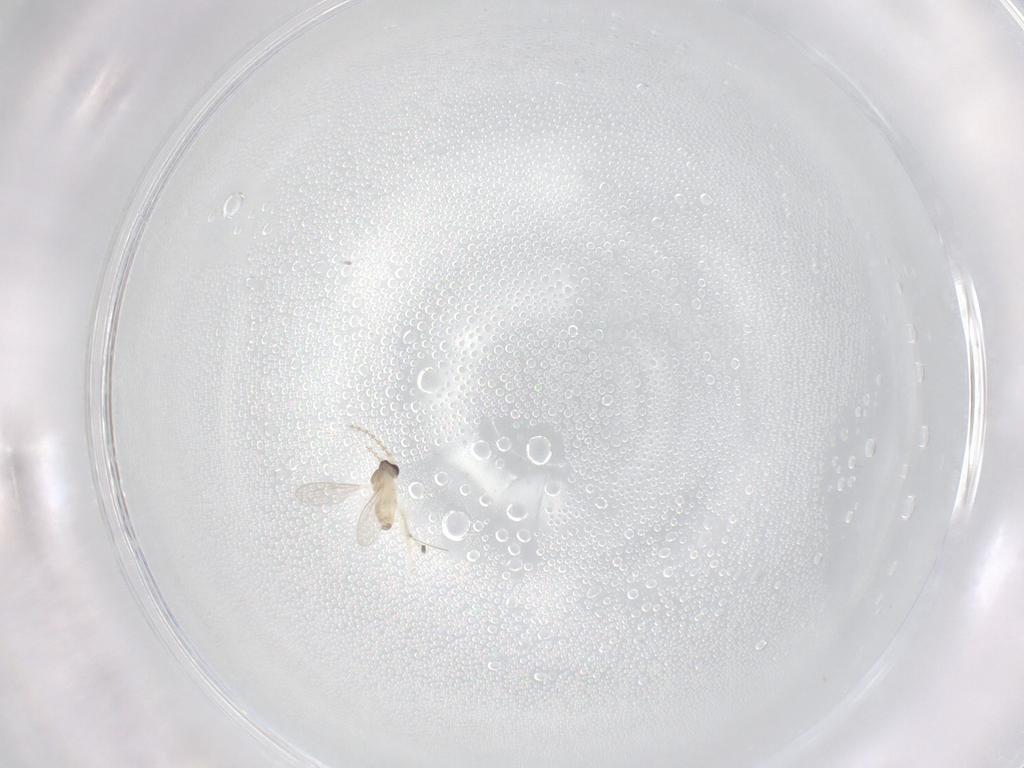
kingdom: Animalia
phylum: Arthropoda
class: Insecta
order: Diptera
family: Cecidomyiidae
